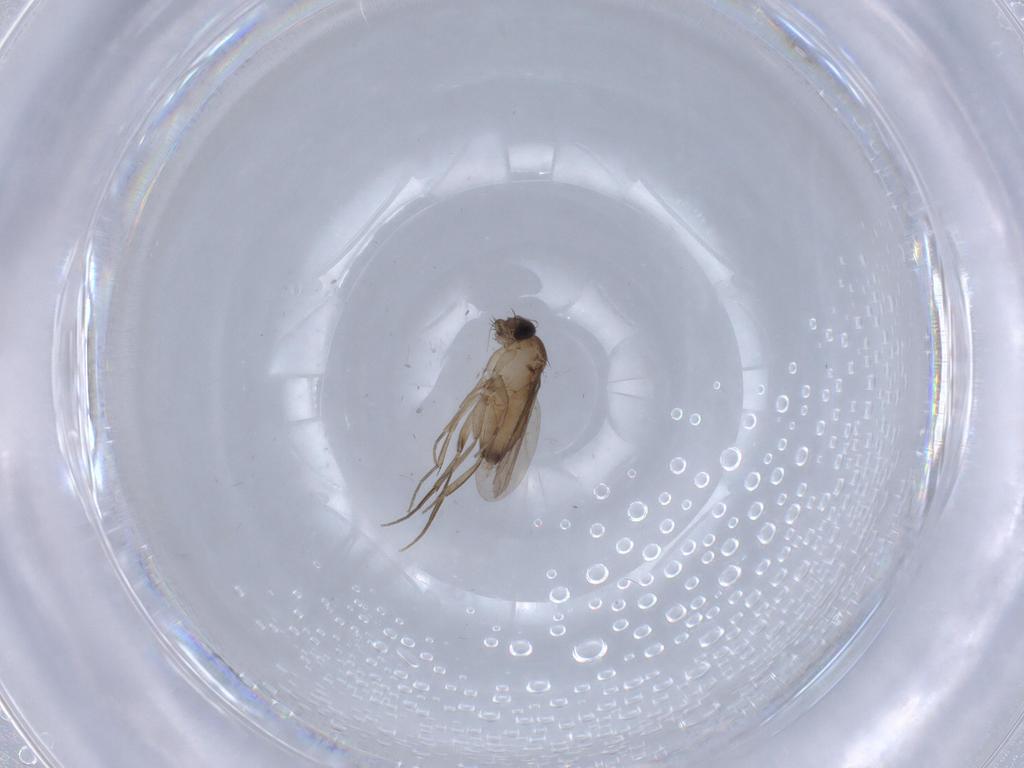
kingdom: Animalia
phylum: Arthropoda
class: Insecta
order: Diptera
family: Phoridae
